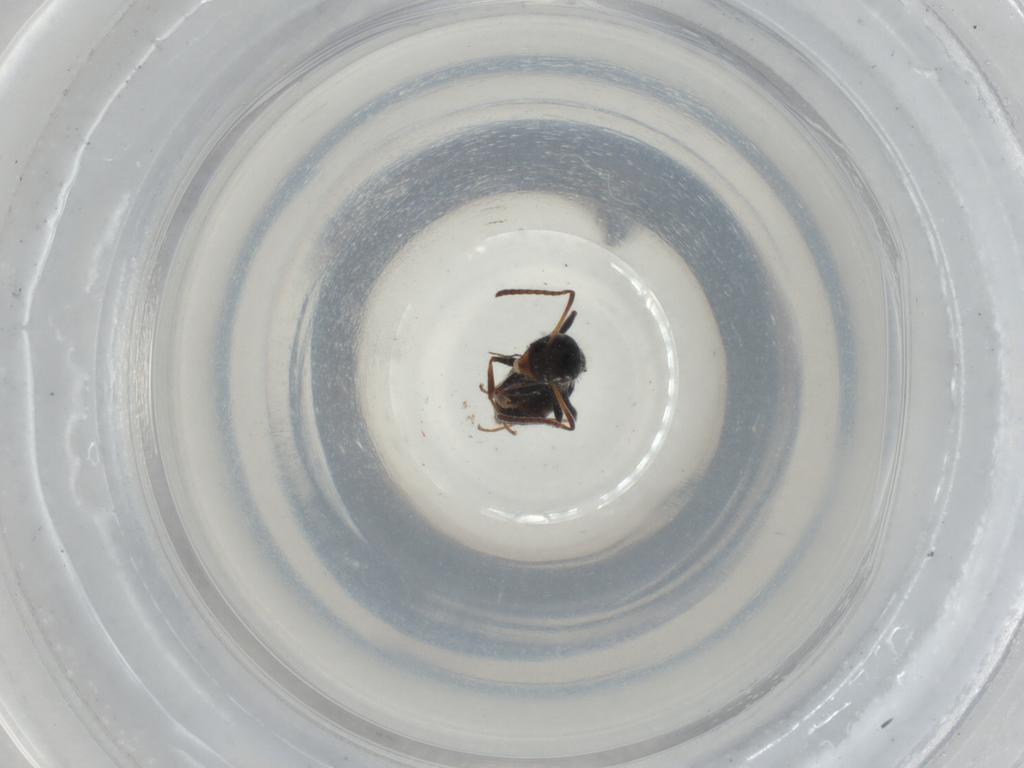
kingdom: Animalia
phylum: Arthropoda
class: Insecta
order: Hymenoptera
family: Formicidae
